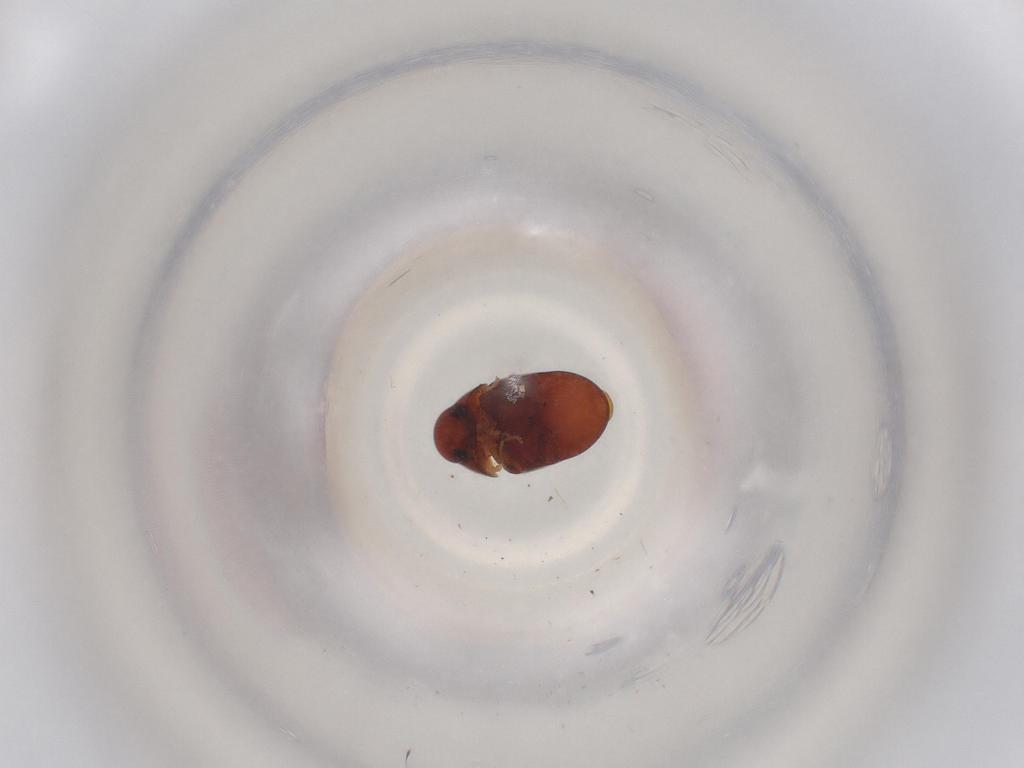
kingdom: Animalia
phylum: Arthropoda
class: Insecta
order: Coleoptera
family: Ptinidae
